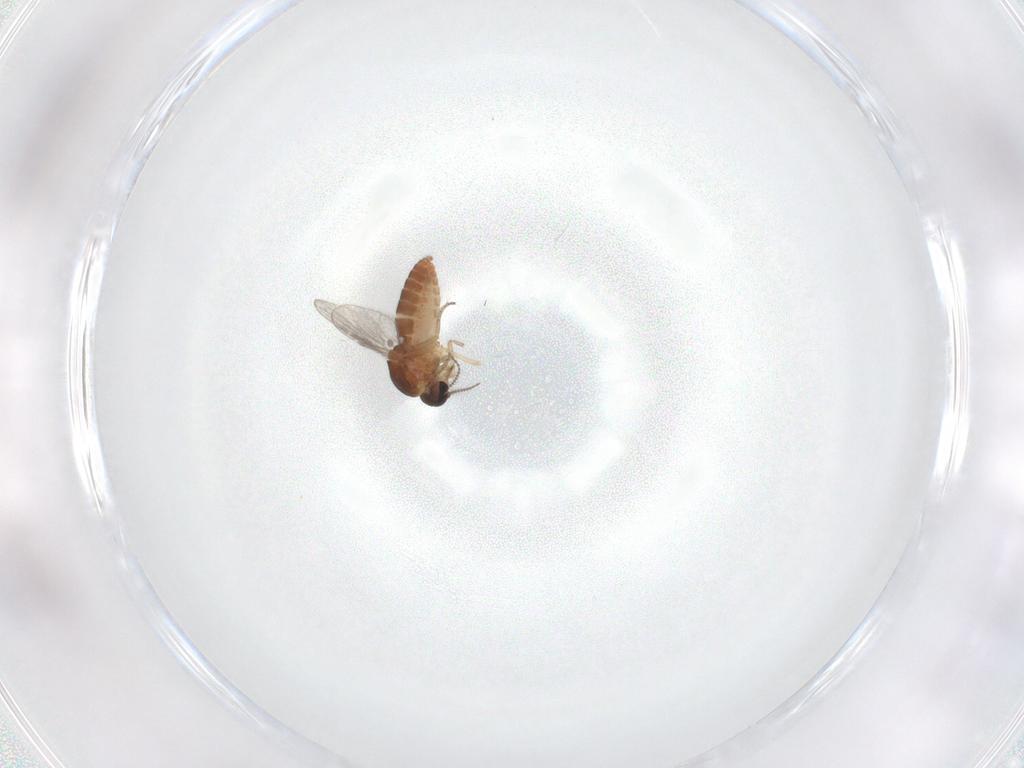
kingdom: Animalia
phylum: Arthropoda
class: Insecta
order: Diptera
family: Ceratopogonidae
